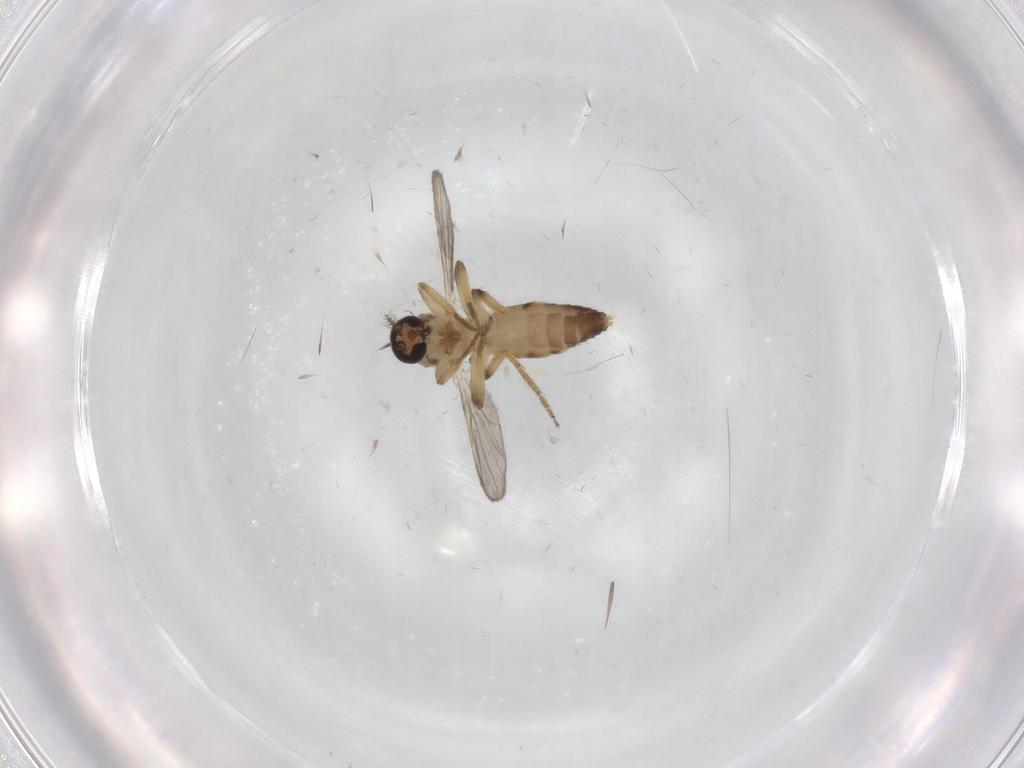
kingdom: Animalia
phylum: Arthropoda
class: Insecta
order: Diptera
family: Ceratopogonidae
